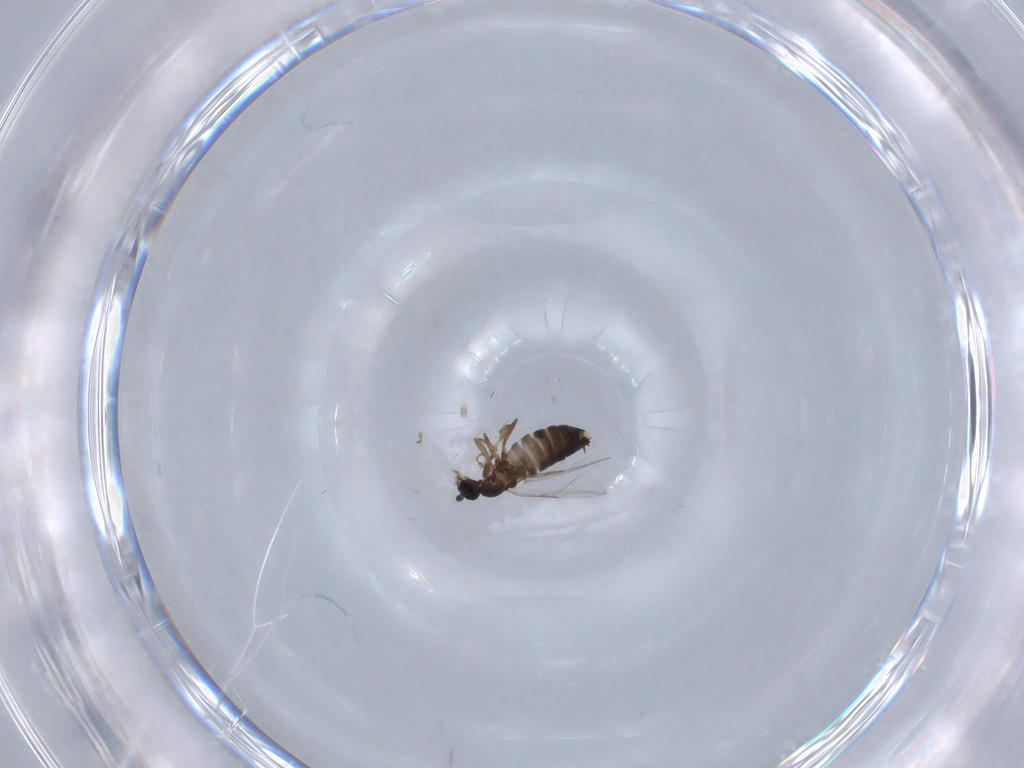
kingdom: Animalia
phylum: Arthropoda
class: Insecta
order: Diptera
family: Scatopsidae
